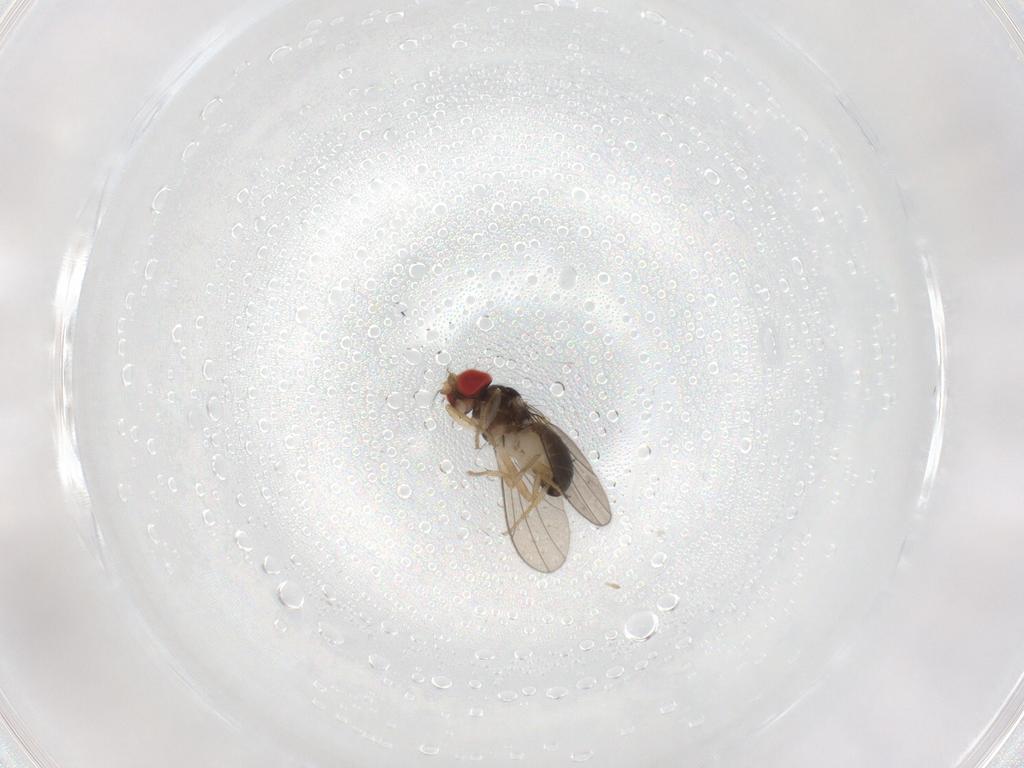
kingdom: Animalia
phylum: Arthropoda
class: Insecta
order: Diptera
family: Drosophilidae
